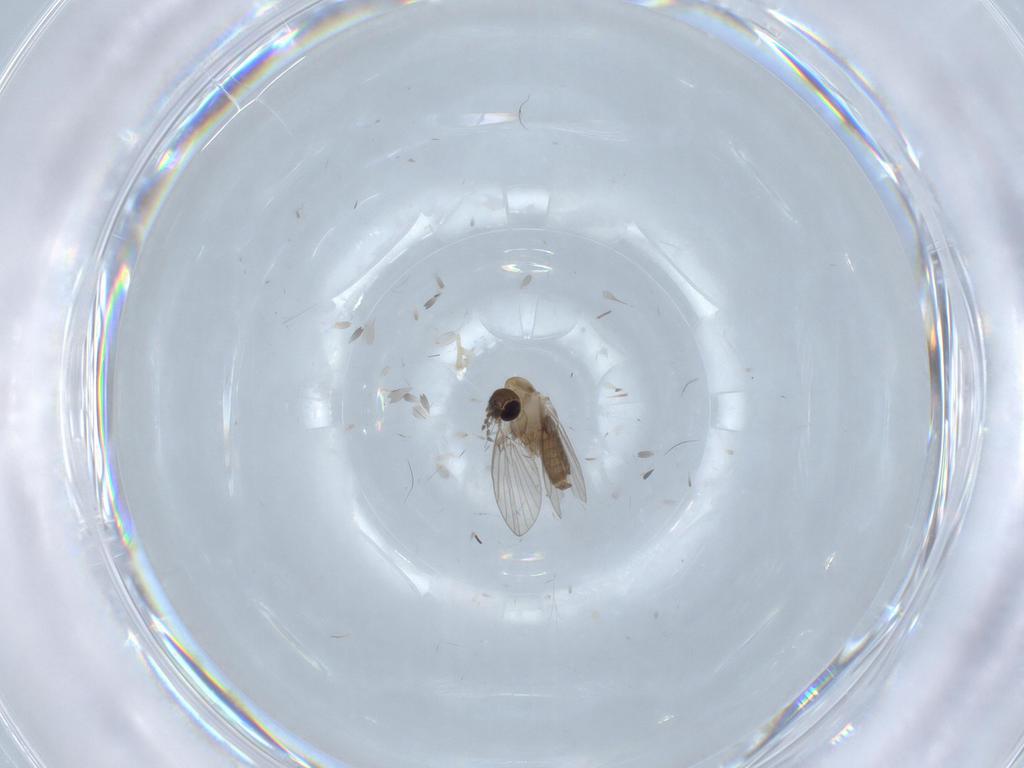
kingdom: Animalia
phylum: Arthropoda
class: Insecta
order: Diptera
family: Psychodidae
